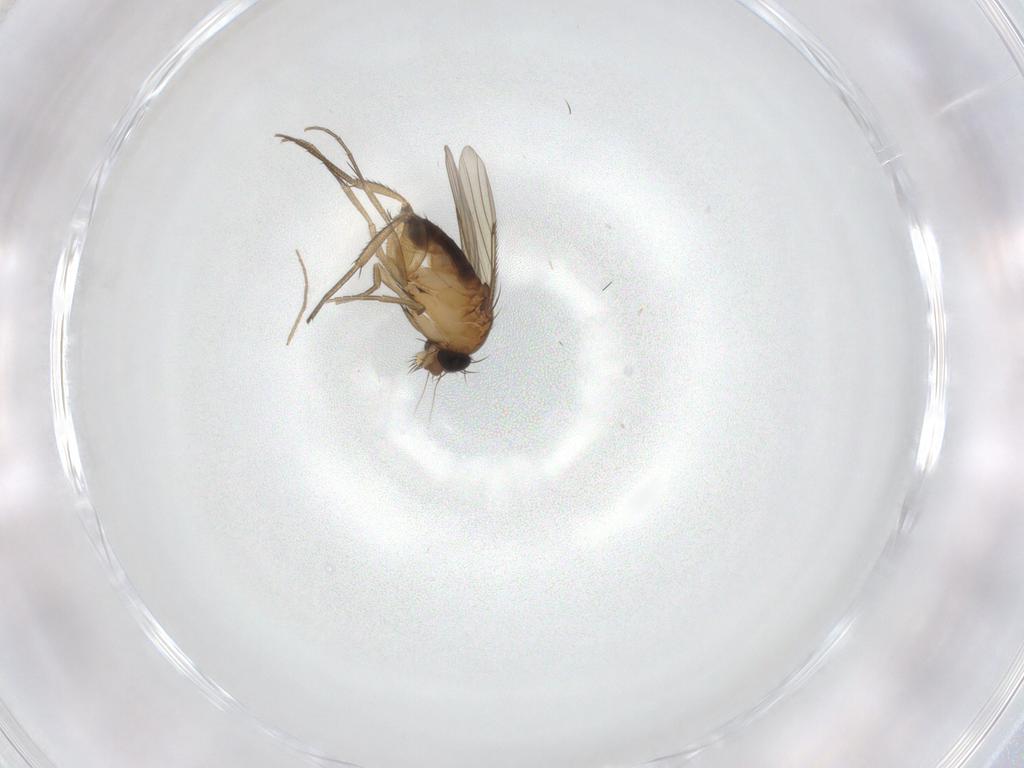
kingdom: Animalia
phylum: Arthropoda
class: Insecta
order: Diptera
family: Phoridae
